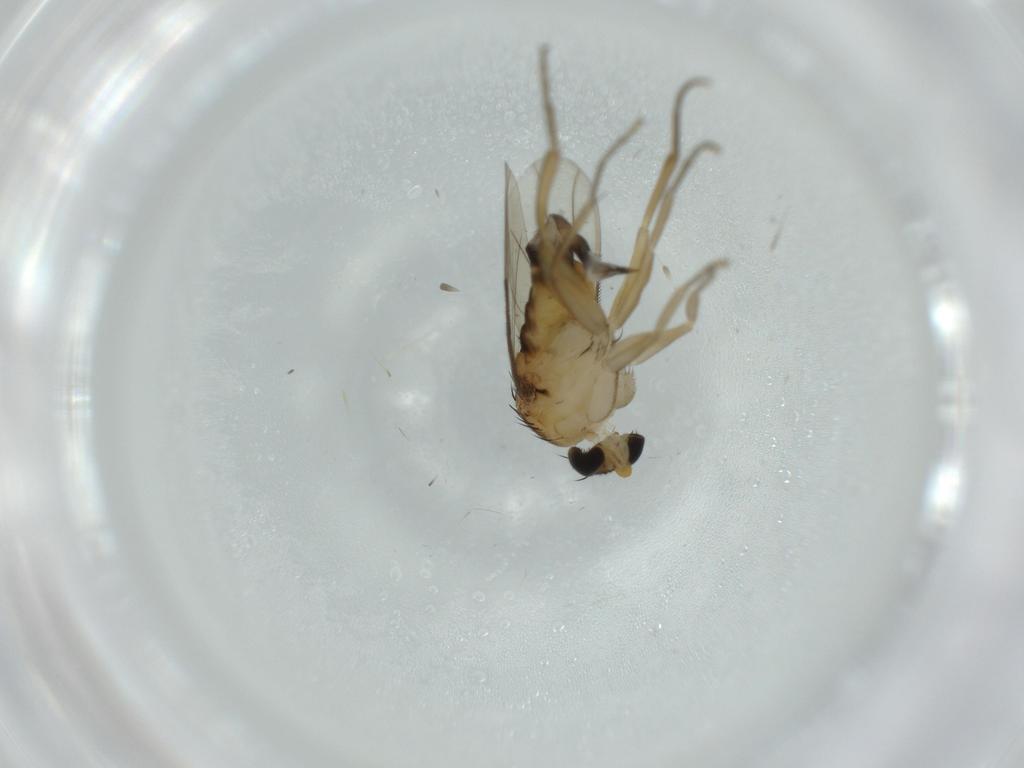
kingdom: Animalia
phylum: Arthropoda
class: Insecta
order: Diptera
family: Phoridae
